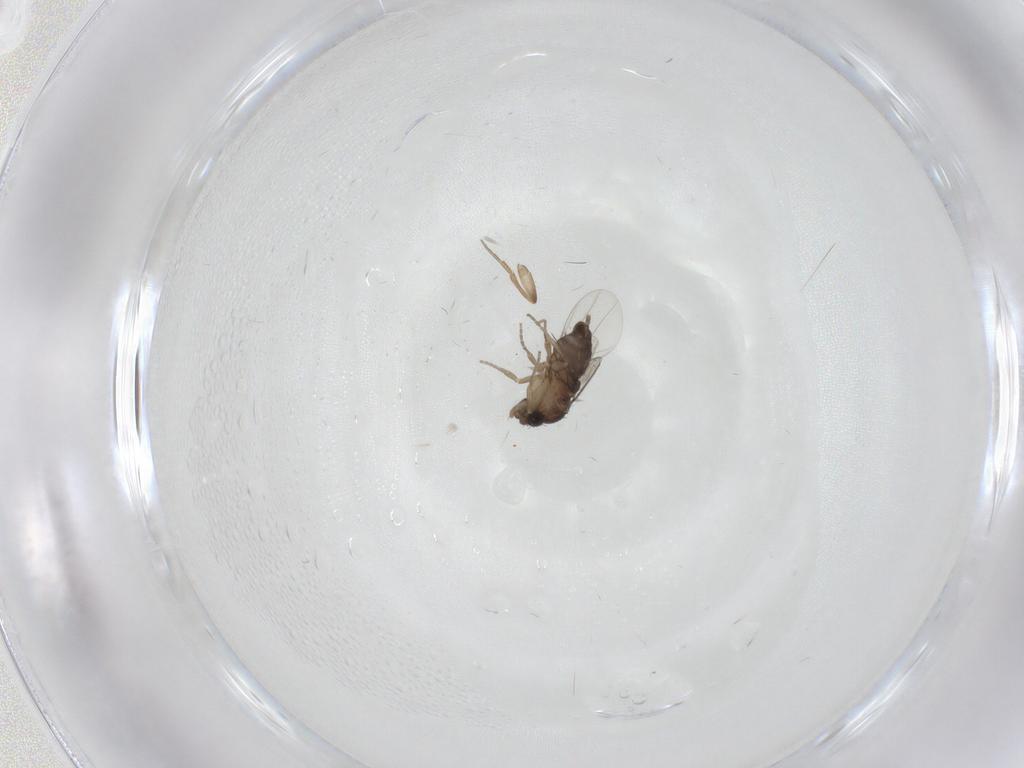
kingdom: Animalia
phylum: Arthropoda
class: Insecta
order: Diptera
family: Phoridae
